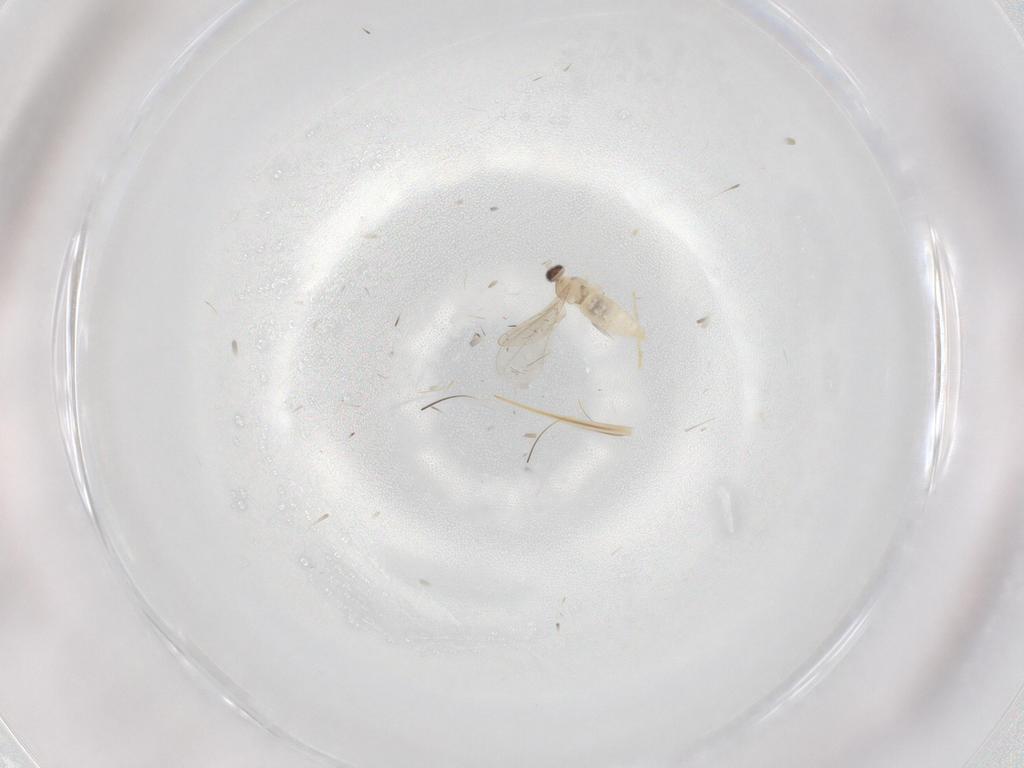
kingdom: Animalia
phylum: Arthropoda
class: Insecta
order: Diptera
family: Cecidomyiidae
